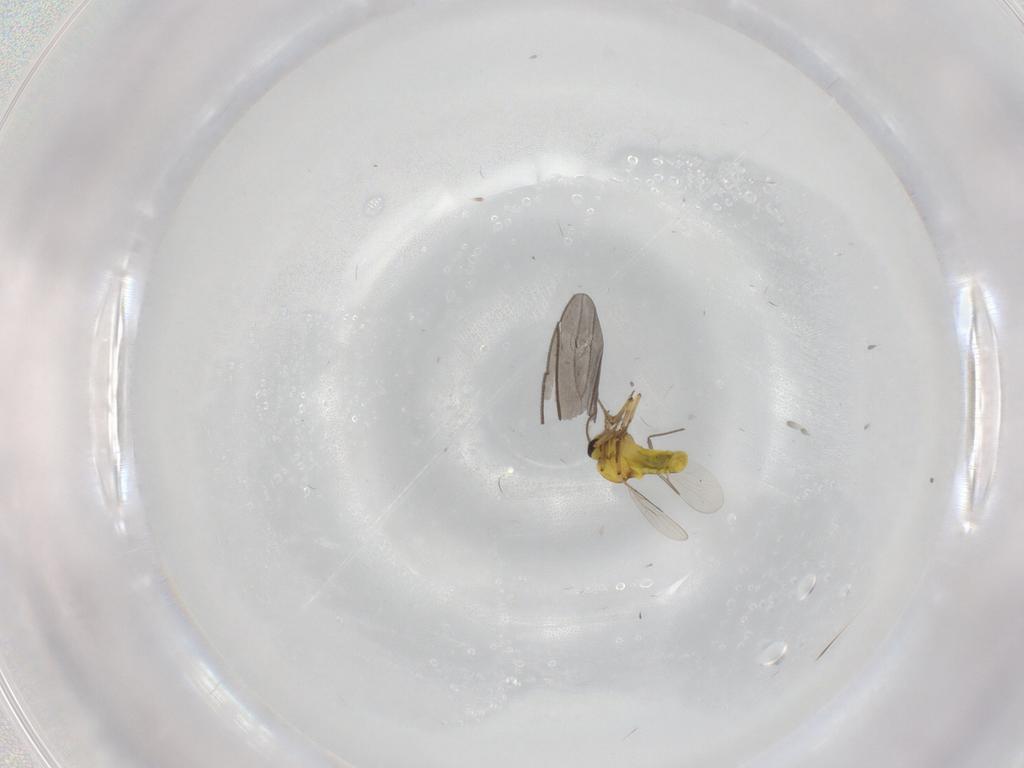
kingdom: Animalia
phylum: Arthropoda
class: Insecta
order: Diptera
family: Sciaridae
